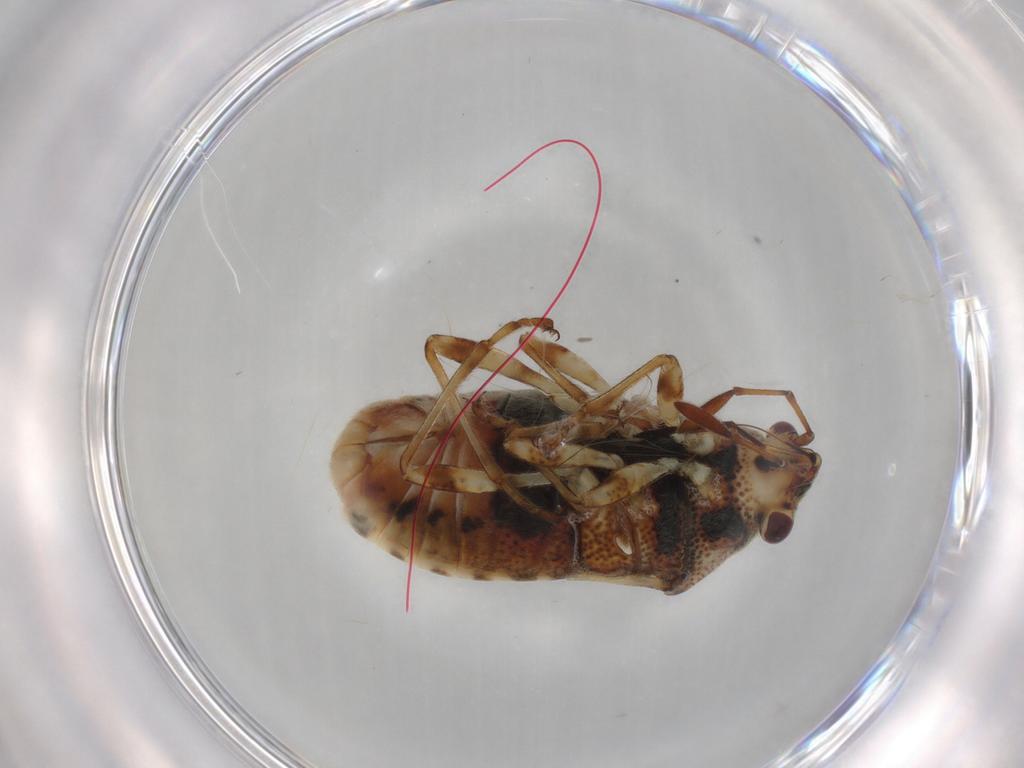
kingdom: Animalia
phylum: Arthropoda
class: Insecta
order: Hemiptera
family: Lygaeidae
